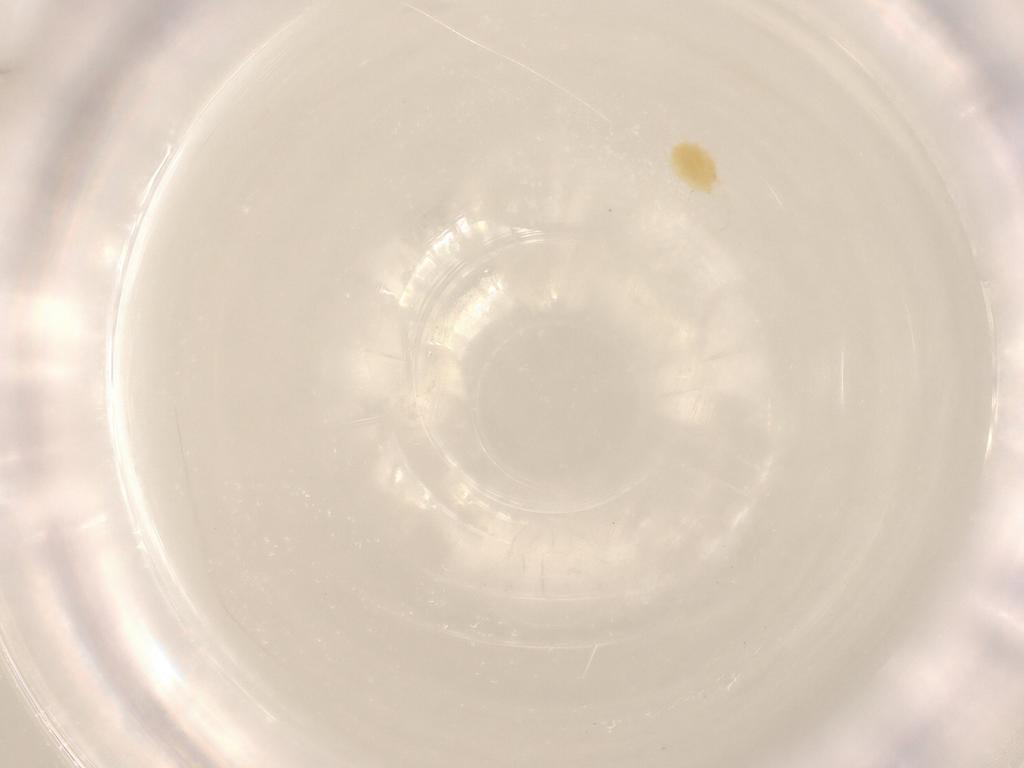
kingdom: Animalia
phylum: Arthropoda
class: Arachnida
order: Trombidiformes
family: Tetranychidae
